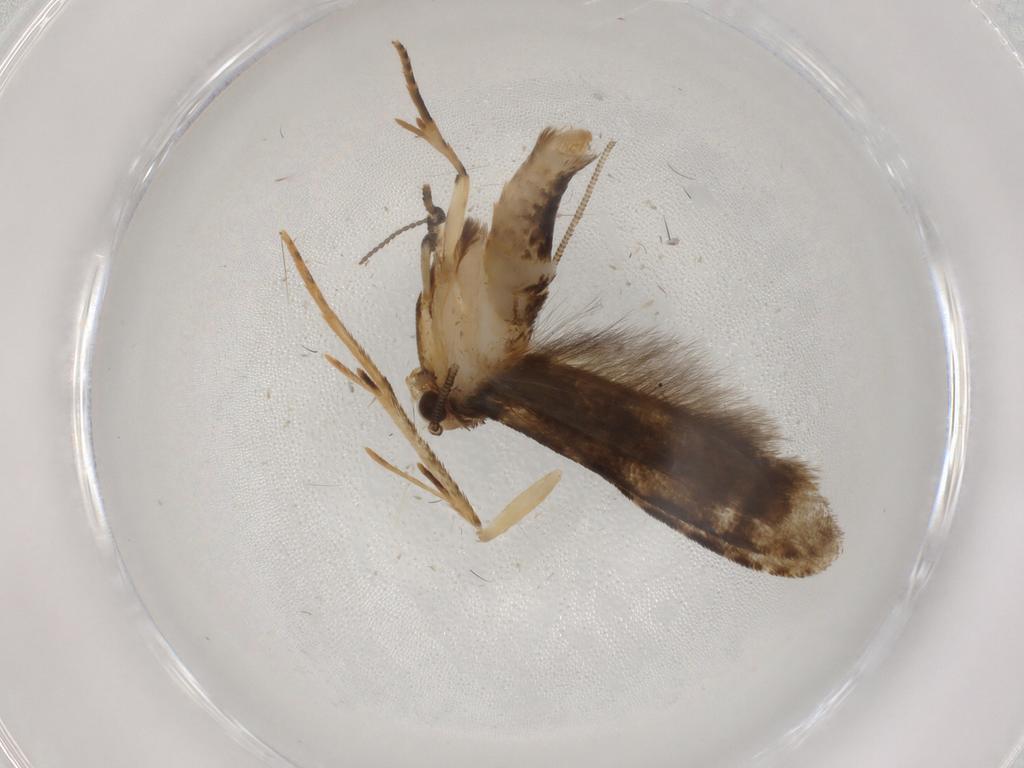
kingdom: Animalia
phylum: Arthropoda
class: Insecta
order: Lepidoptera
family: Tineidae
